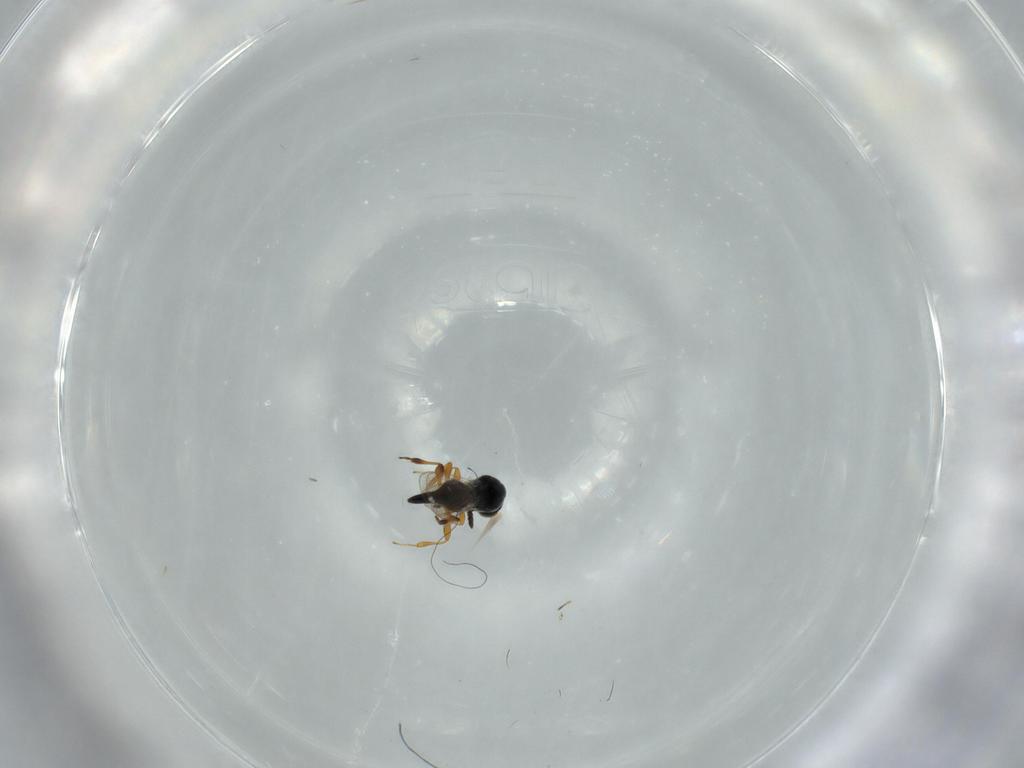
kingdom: Animalia
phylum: Arthropoda
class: Insecta
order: Hymenoptera
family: Platygastridae
